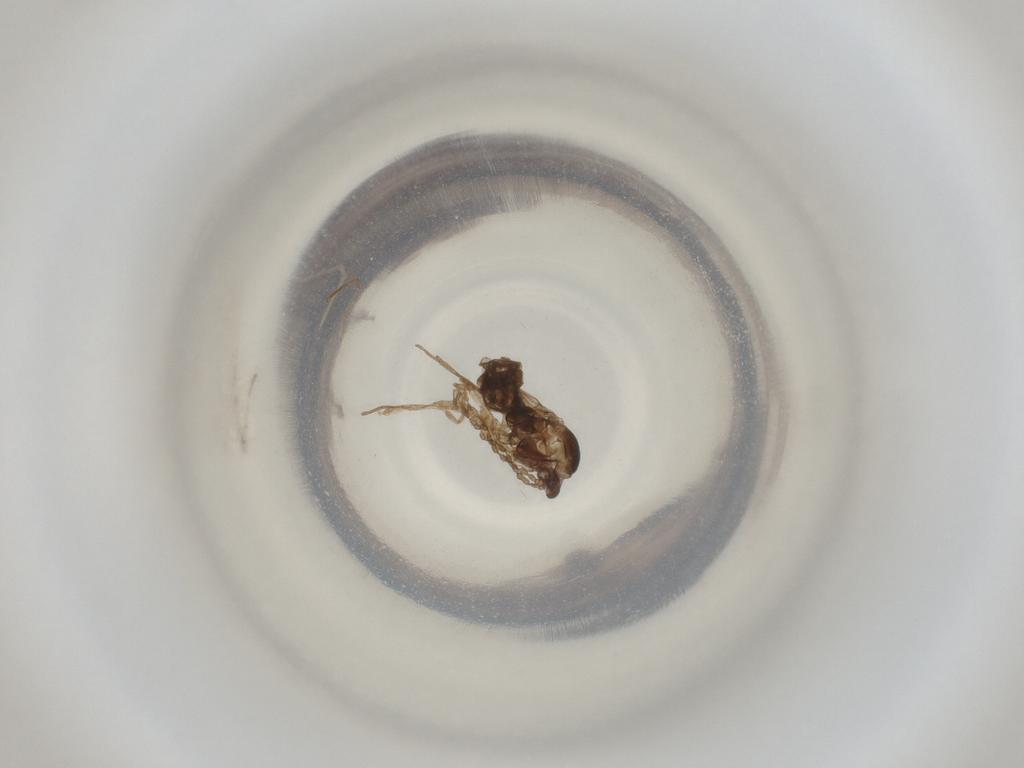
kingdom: Animalia
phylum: Arthropoda
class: Insecta
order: Diptera
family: Cecidomyiidae
